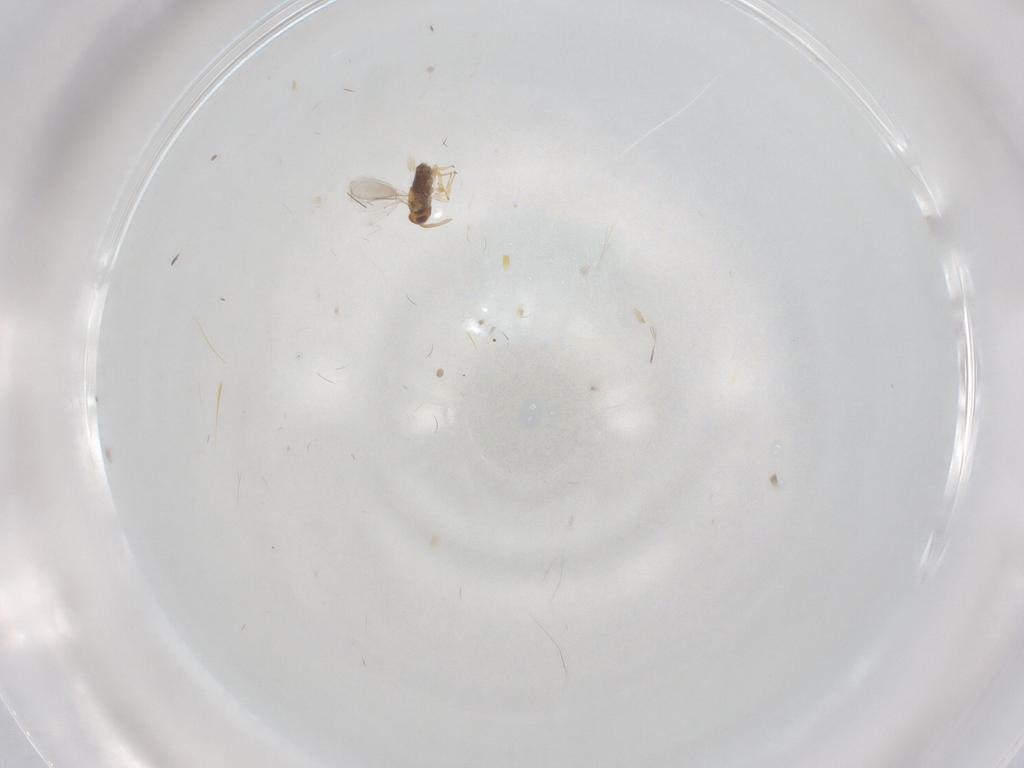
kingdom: Animalia
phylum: Arthropoda
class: Insecta
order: Hymenoptera
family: Aphelinidae
